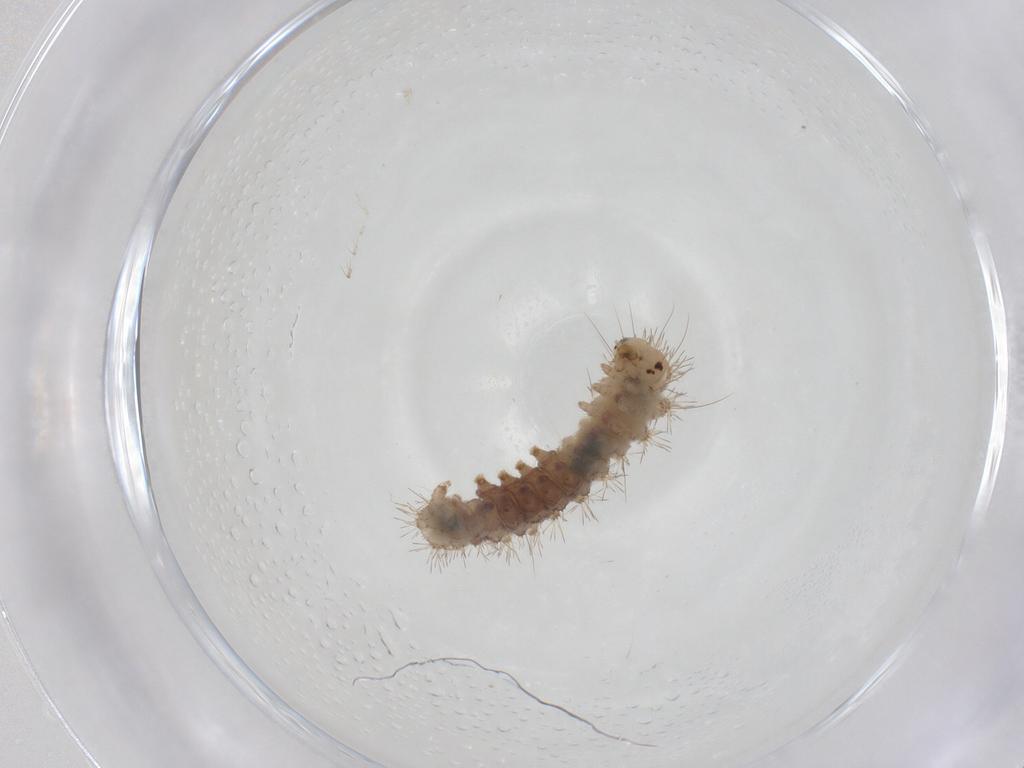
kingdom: Animalia
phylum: Arthropoda
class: Insecta
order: Lepidoptera
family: Erebidae
